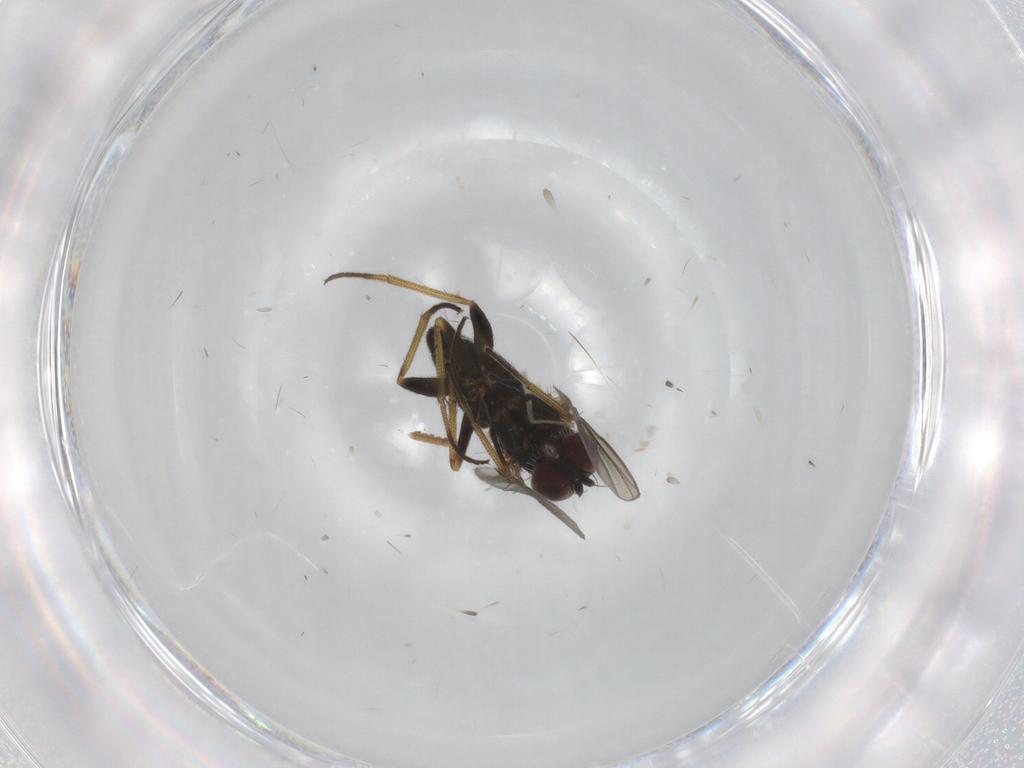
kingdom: Animalia
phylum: Arthropoda
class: Insecta
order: Diptera
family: Dolichopodidae
